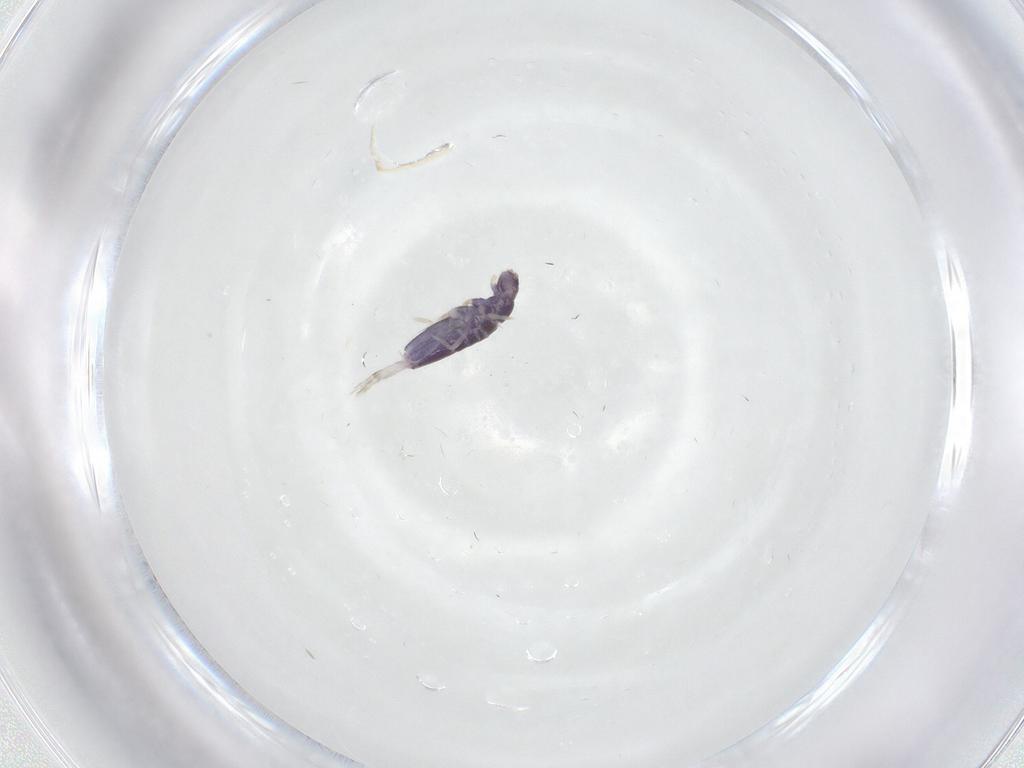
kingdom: Animalia
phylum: Arthropoda
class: Collembola
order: Entomobryomorpha
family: Entomobryidae
